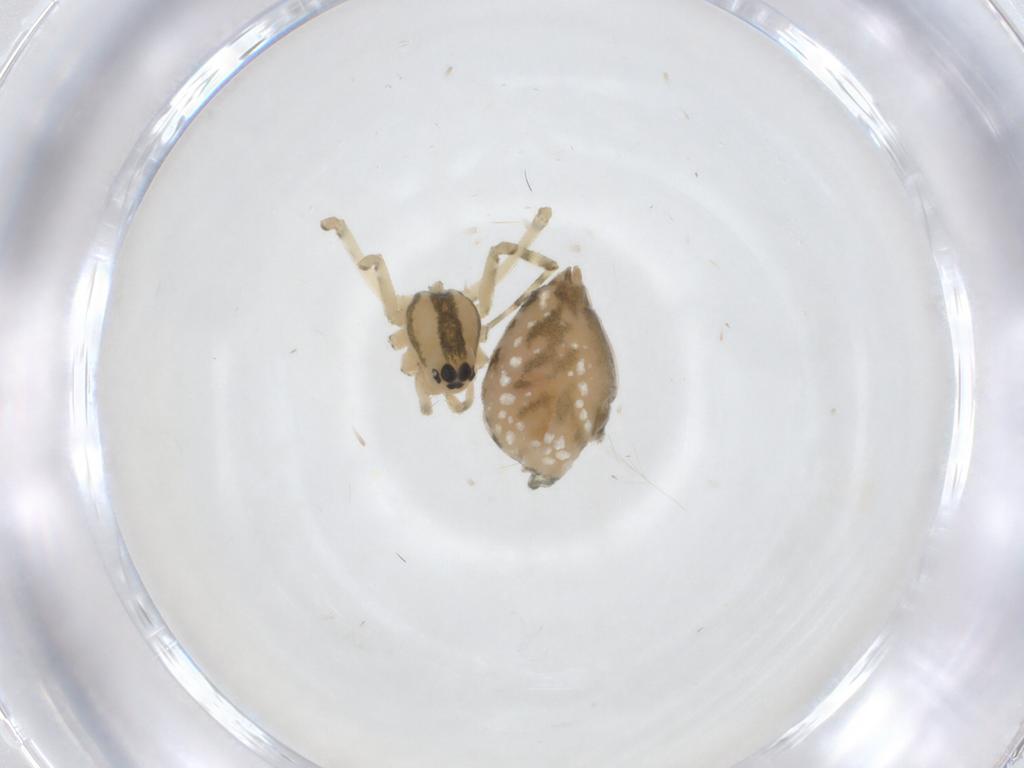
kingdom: Animalia
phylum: Arthropoda
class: Arachnida
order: Araneae
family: Linyphiidae
